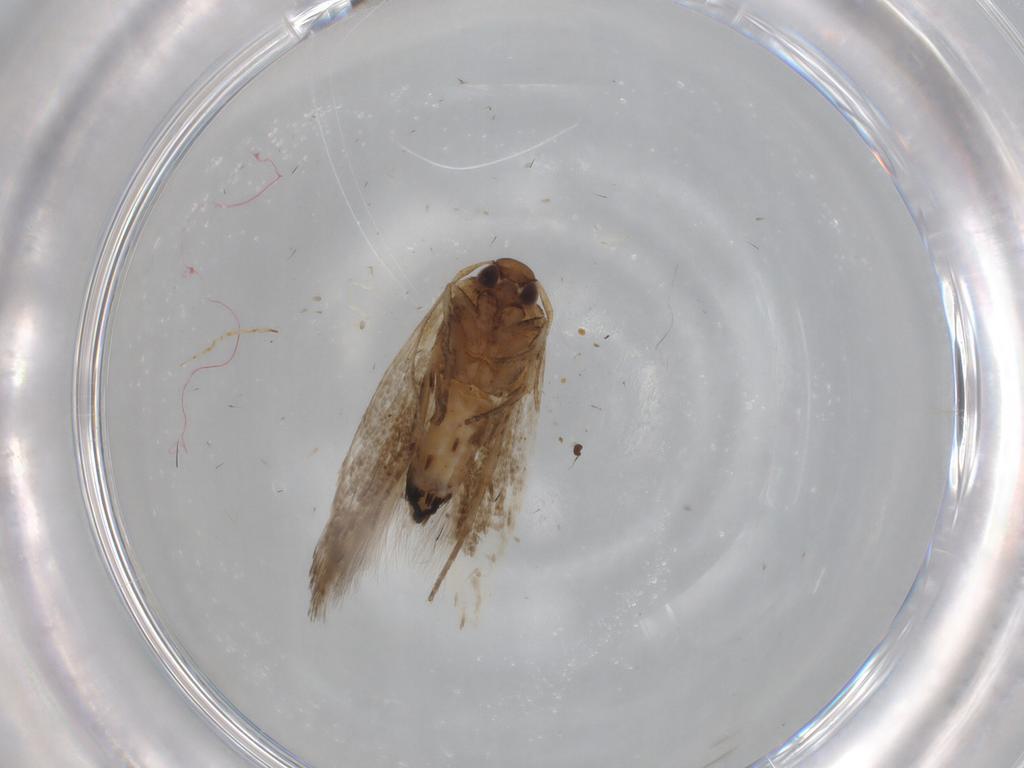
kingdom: Animalia
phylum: Arthropoda
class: Insecta
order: Lepidoptera
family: Cosmopterigidae
